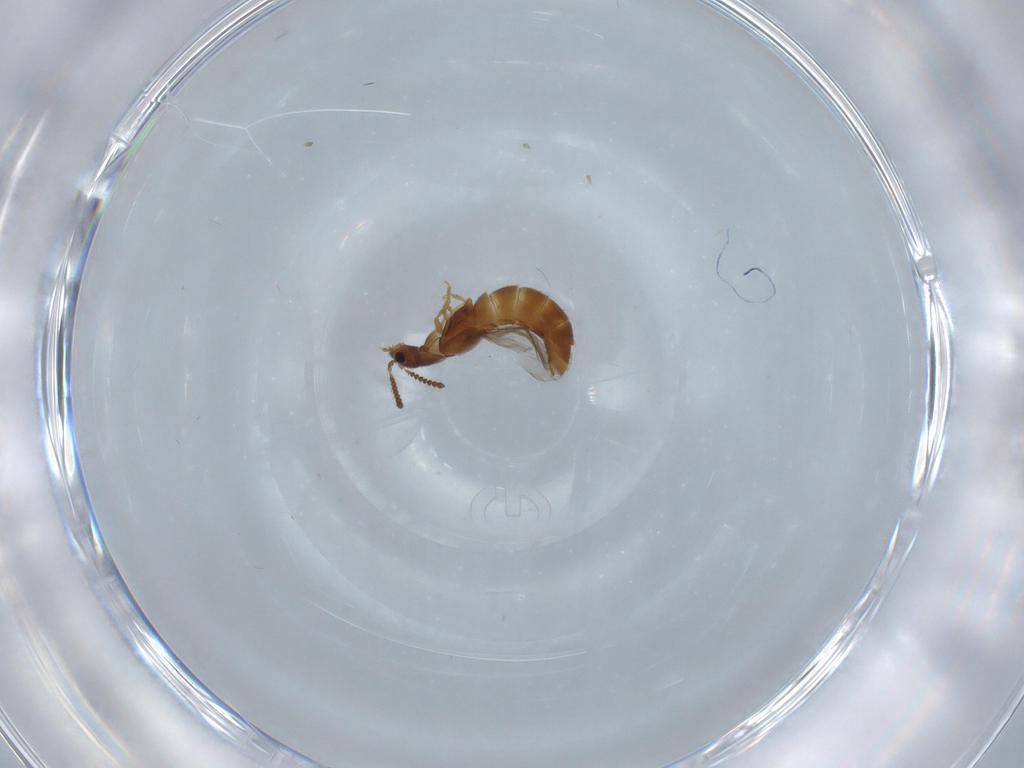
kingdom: Animalia
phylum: Arthropoda
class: Insecta
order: Coleoptera
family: Staphylinidae
